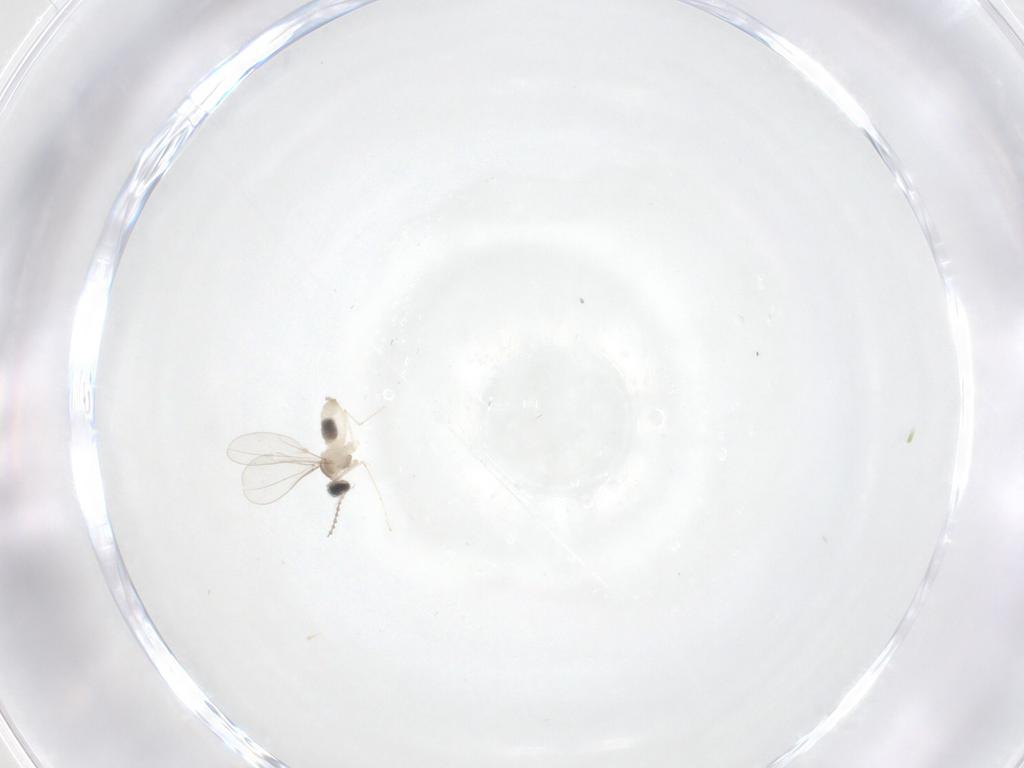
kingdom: Animalia
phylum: Arthropoda
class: Insecta
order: Diptera
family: Cecidomyiidae
